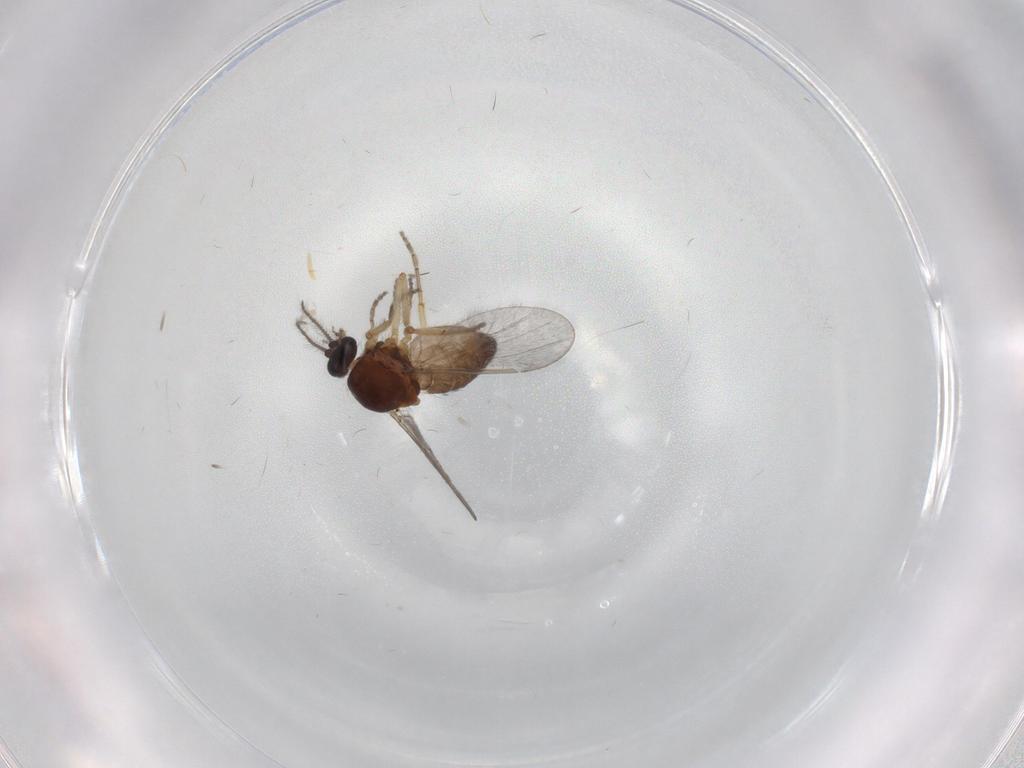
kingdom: Animalia
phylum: Arthropoda
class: Insecta
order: Diptera
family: Ceratopogonidae
